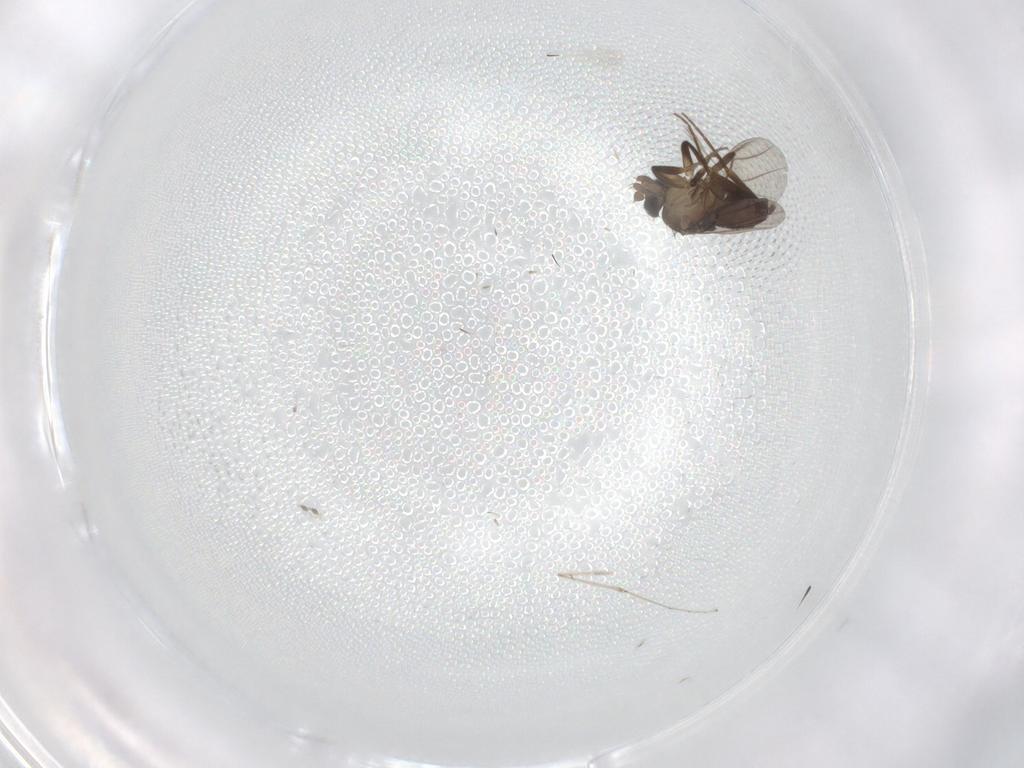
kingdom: Animalia
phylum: Arthropoda
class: Insecta
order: Diptera
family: Phoridae
